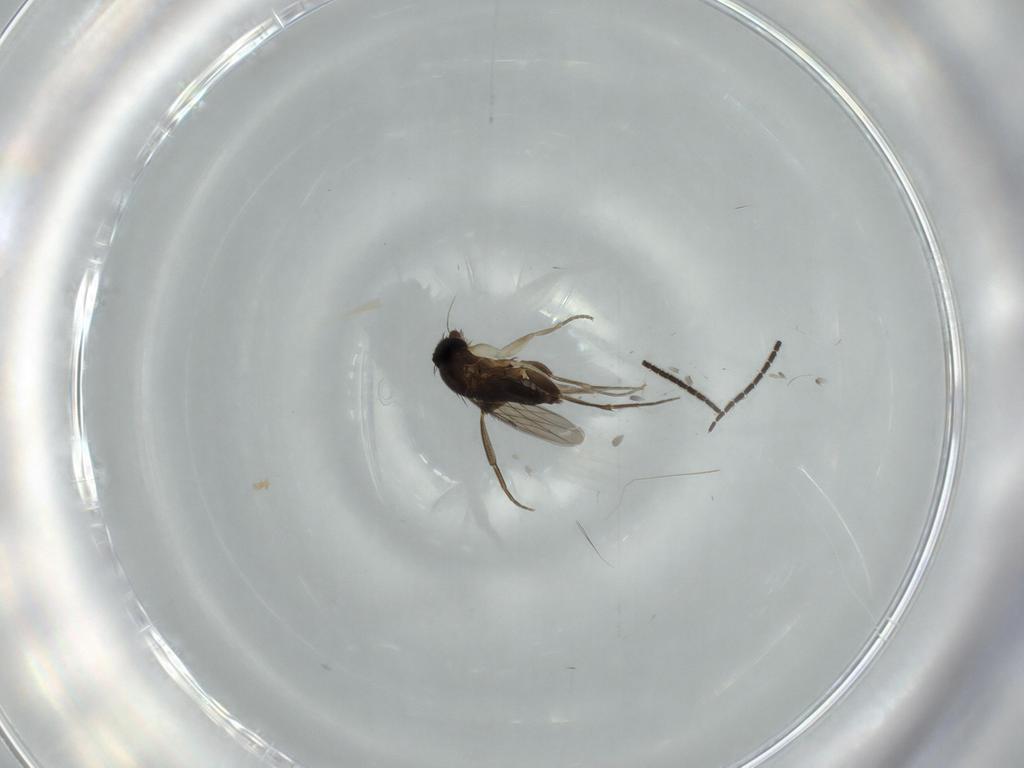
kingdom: Animalia
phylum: Arthropoda
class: Insecta
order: Diptera
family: Phoridae
